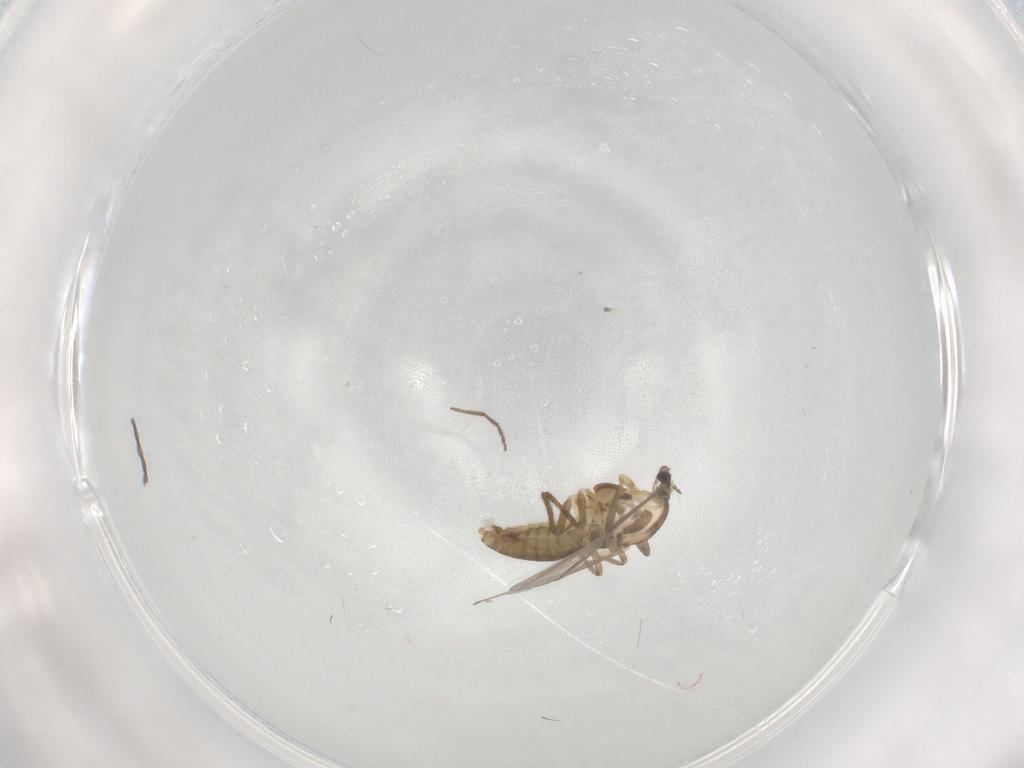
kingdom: Animalia
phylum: Arthropoda
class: Insecta
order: Diptera
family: Chironomidae
